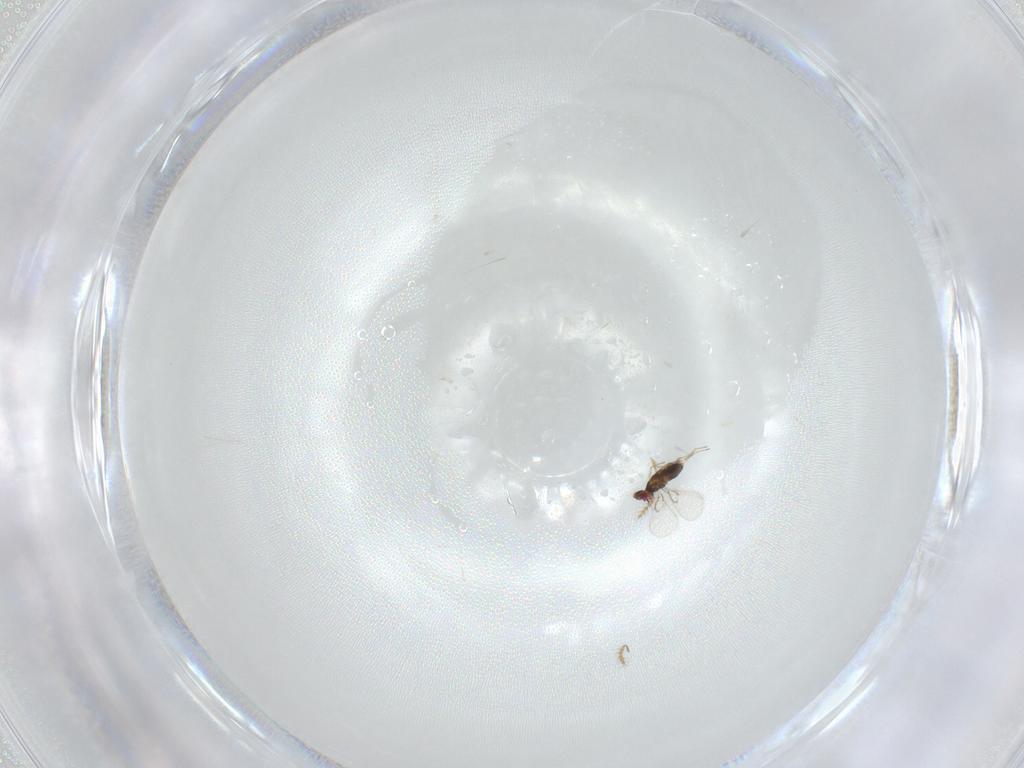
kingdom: Animalia
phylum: Arthropoda
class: Insecta
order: Hymenoptera
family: Trichogrammatidae
